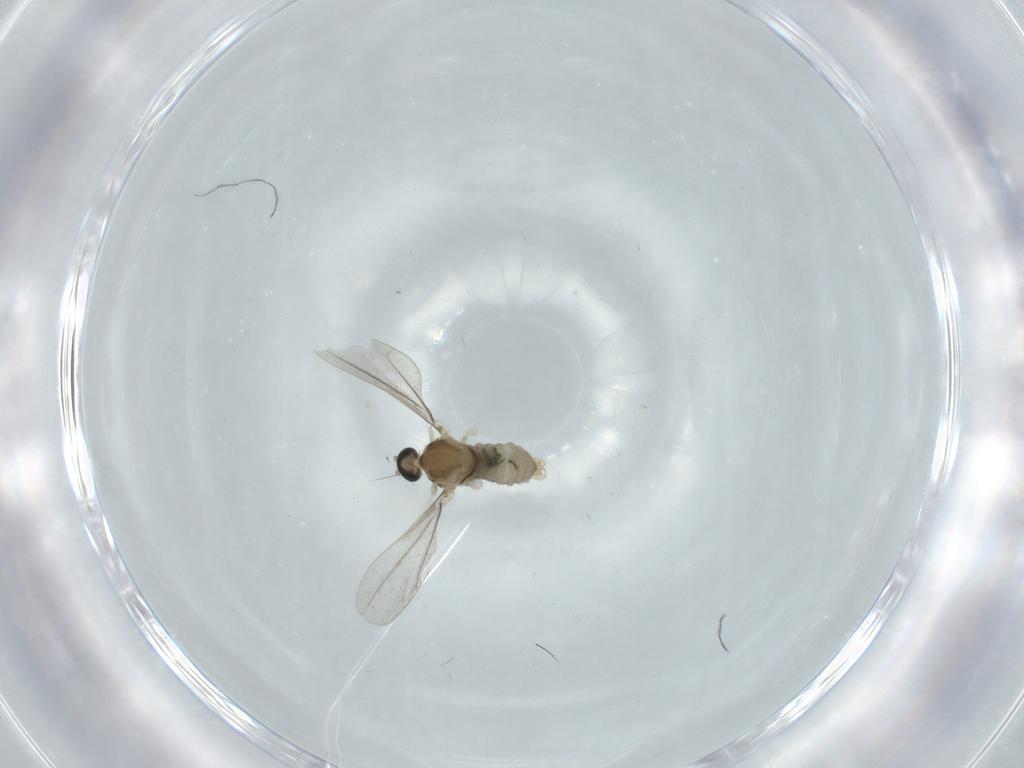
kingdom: Animalia
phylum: Arthropoda
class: Insecta
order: Diptera
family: Cecidomyiidae
